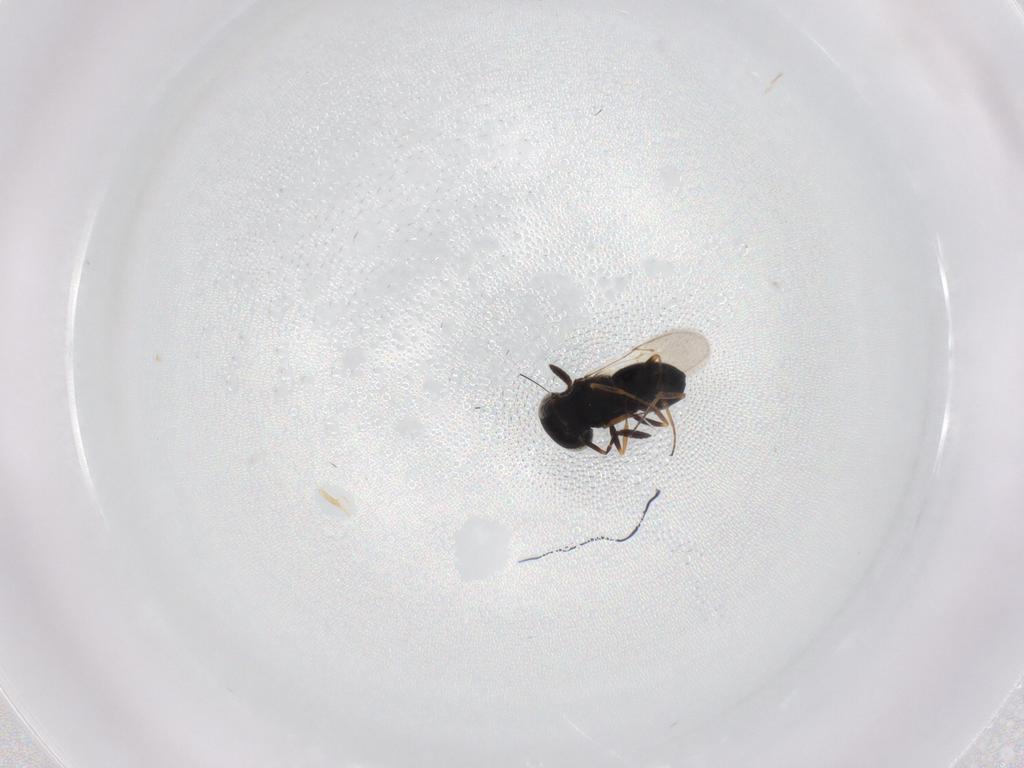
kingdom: Animalia
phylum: Arthropoda
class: Insecta
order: Hymenoptera
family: Scelionidae
